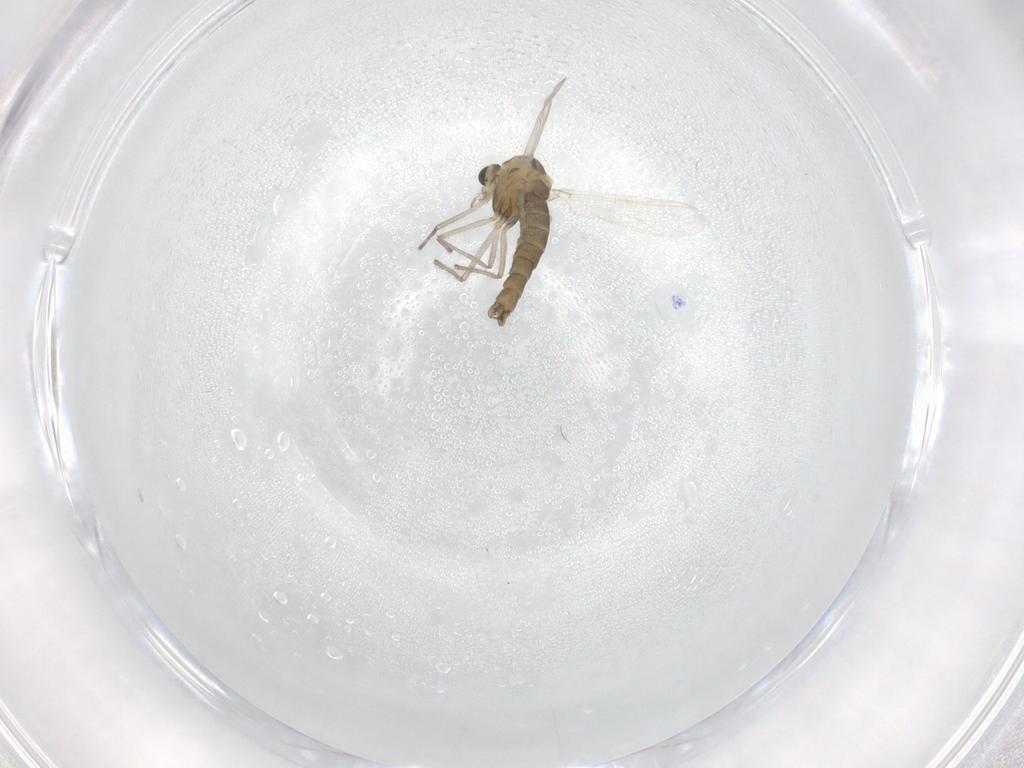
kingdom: Animalia
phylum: Arthropoda
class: Insecta
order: Diptera
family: Chironomidae
